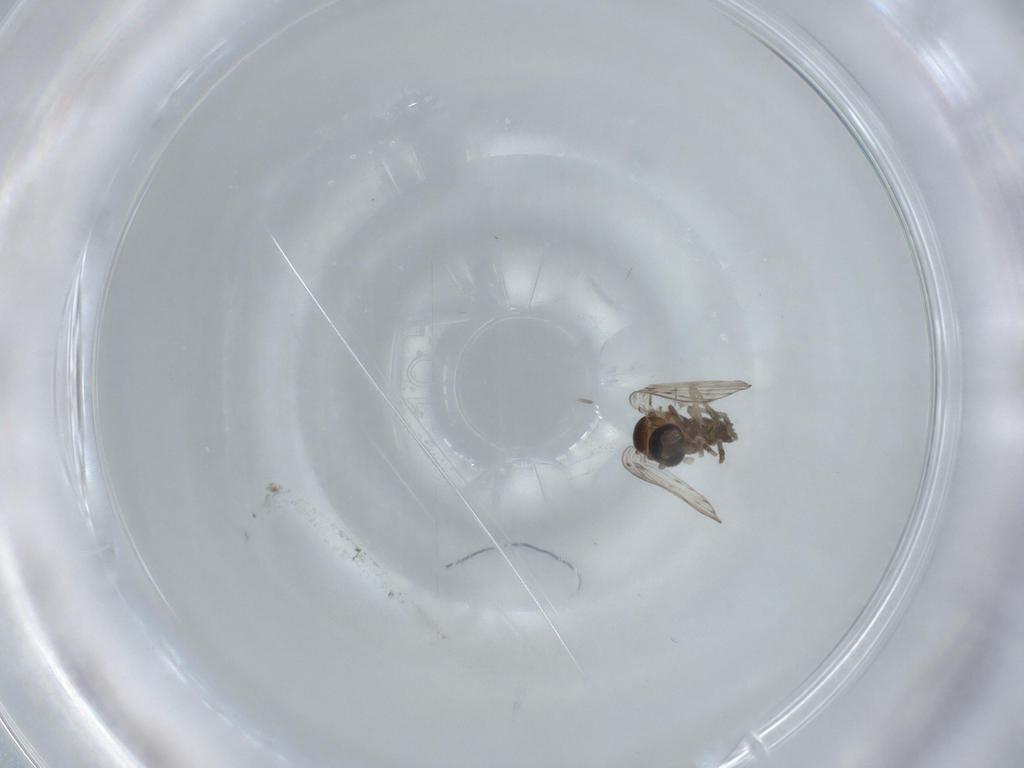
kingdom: Animalia
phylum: Arthropoda
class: Insecta
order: Diptera
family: Psychodidae
